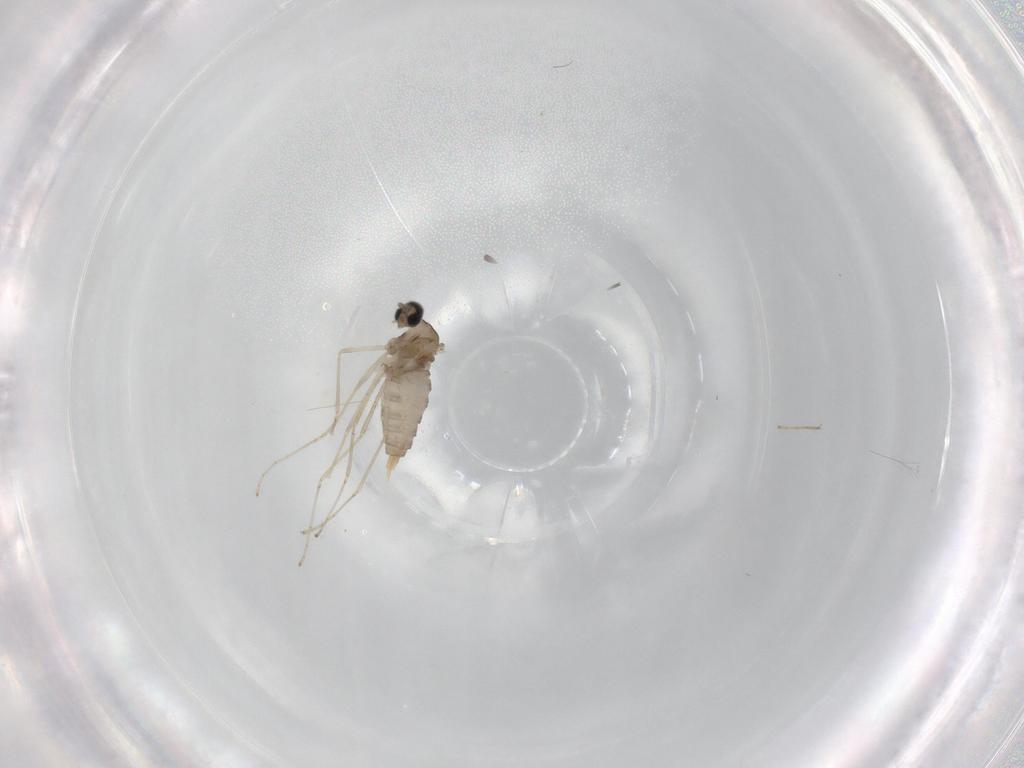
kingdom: Animalia
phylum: Arthropoda
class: Insecta
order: Diptera
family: Cecidomyiidae
